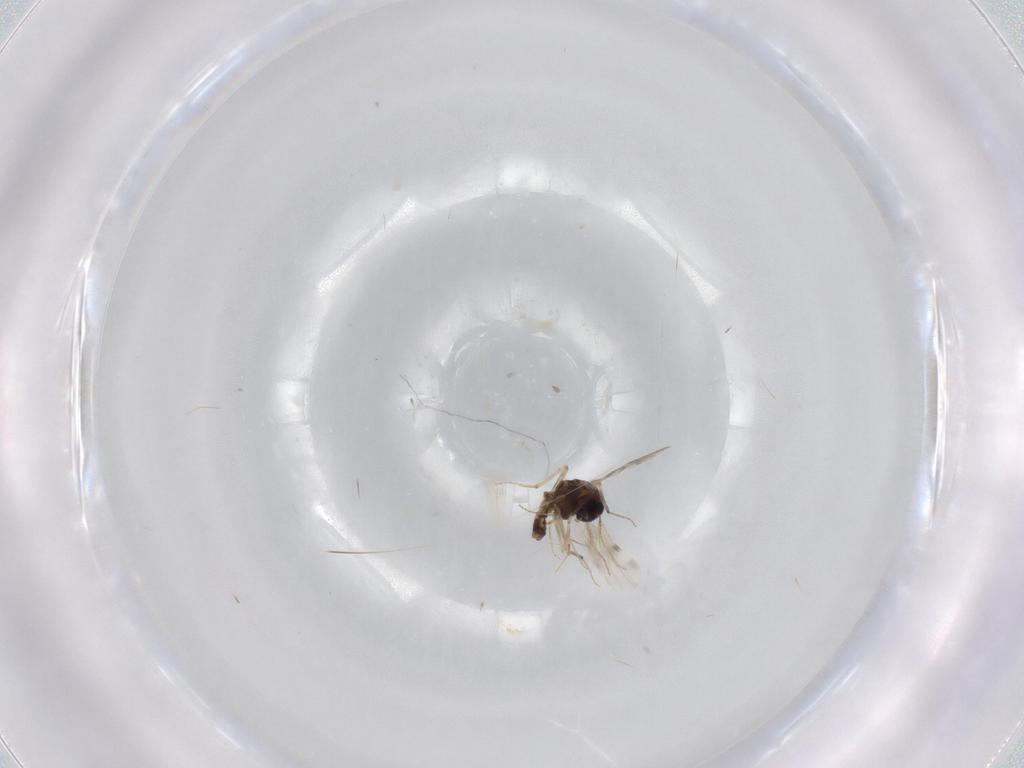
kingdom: Animalia
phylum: Arthropoda
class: Insecta
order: Diptera
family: Cecidomyiidae
